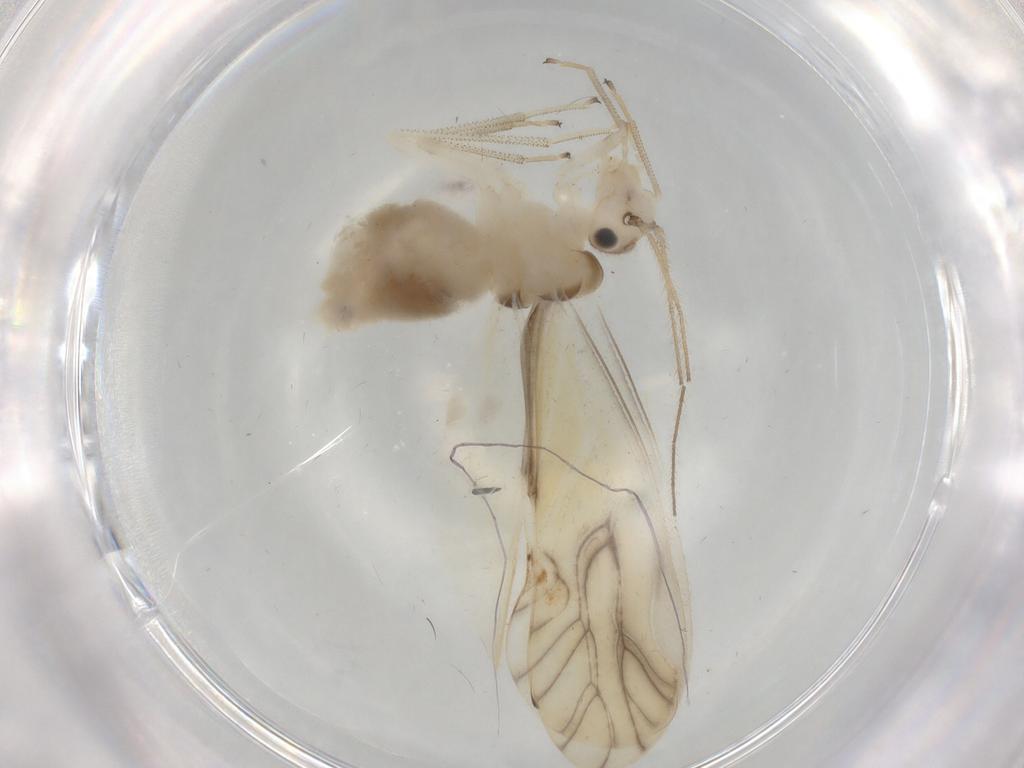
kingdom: Animalia
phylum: Arthropoda
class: Insecta
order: Psocodea
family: Caeciliusidae
